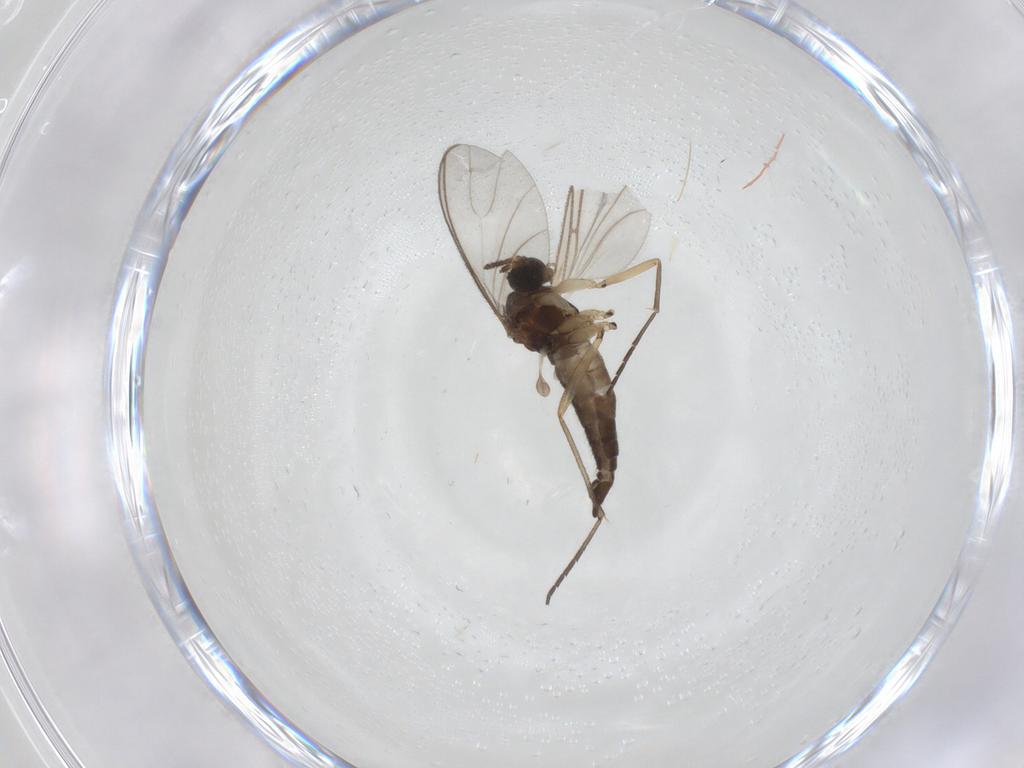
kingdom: Animalia
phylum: Arthropoda
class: Insecta
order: Diptera
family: Sciaridae
